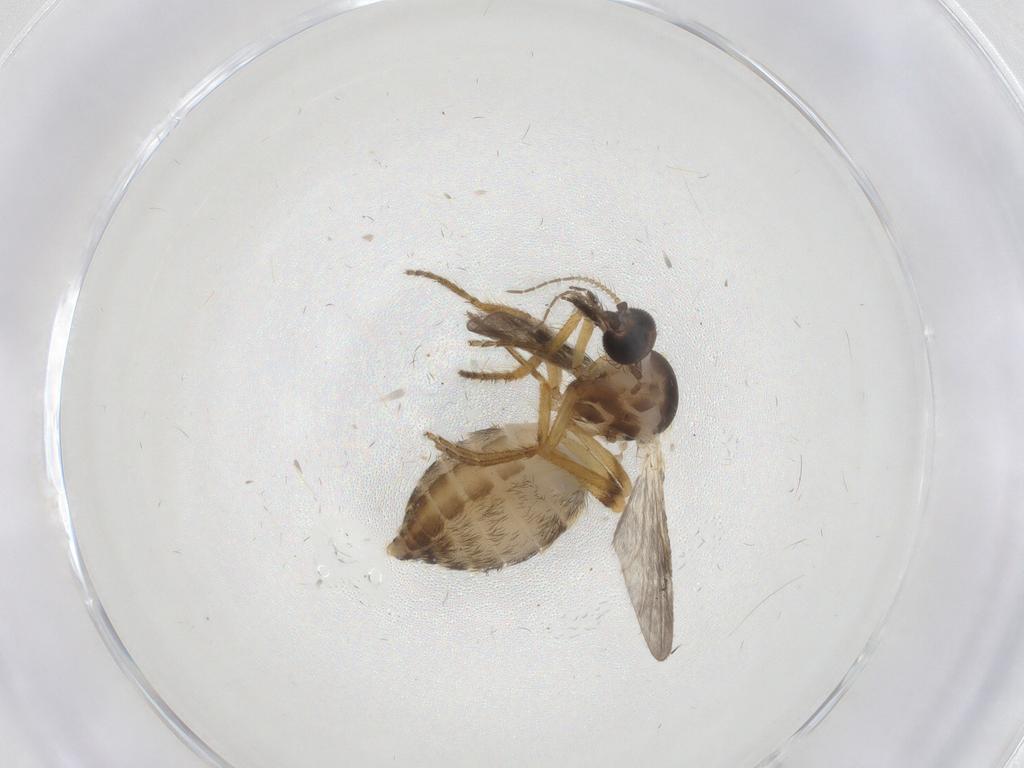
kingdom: Animalia
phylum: Arthropoda
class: Insecta
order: Diptera
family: Ceratopogonidae
